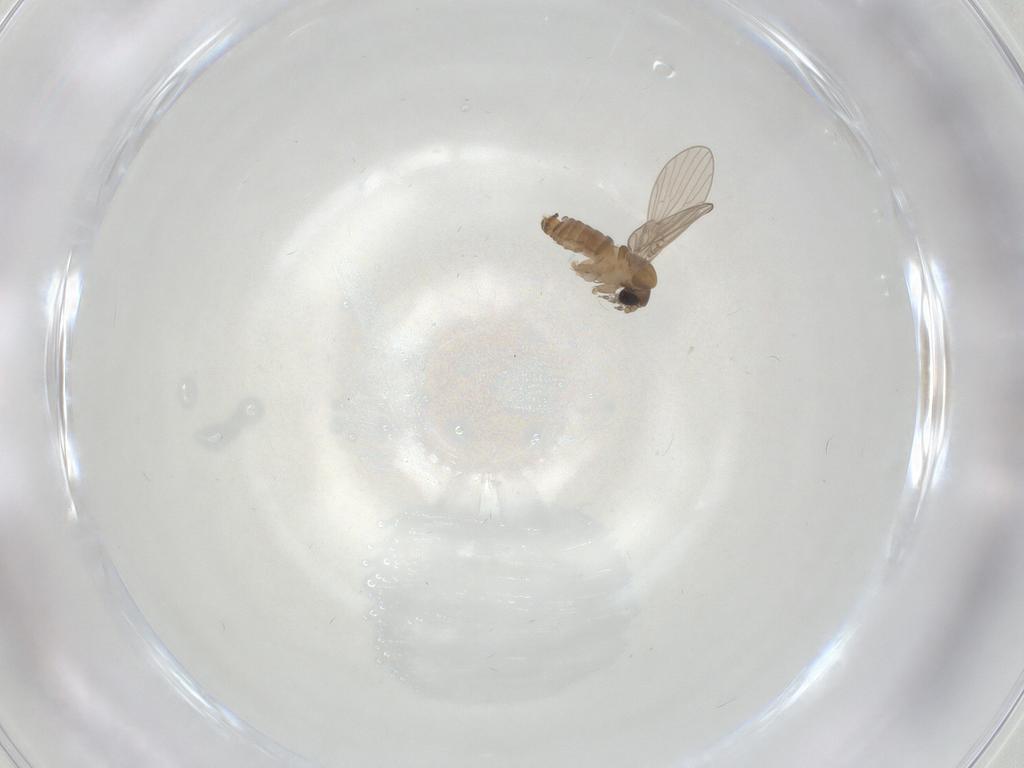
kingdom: Animalia
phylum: Arthropoda
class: Insecta
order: Diptera
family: Psychodidae
